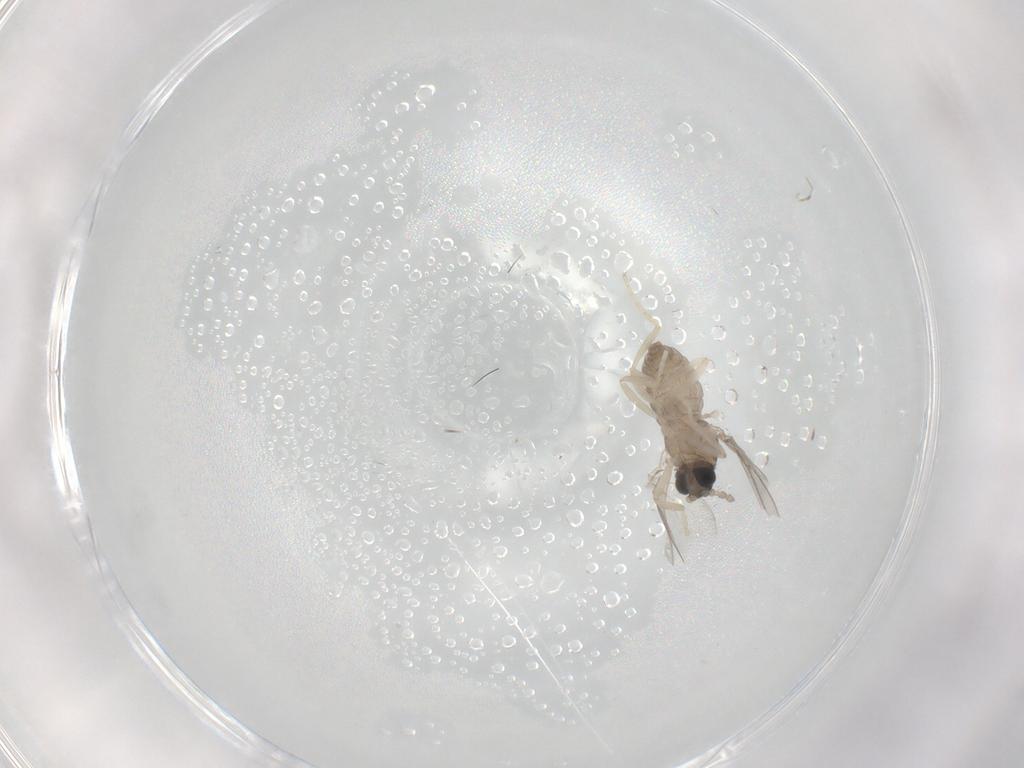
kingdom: Animalia
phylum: Arthropoda
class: Insecta
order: Diptera
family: Cecidomyiidae
